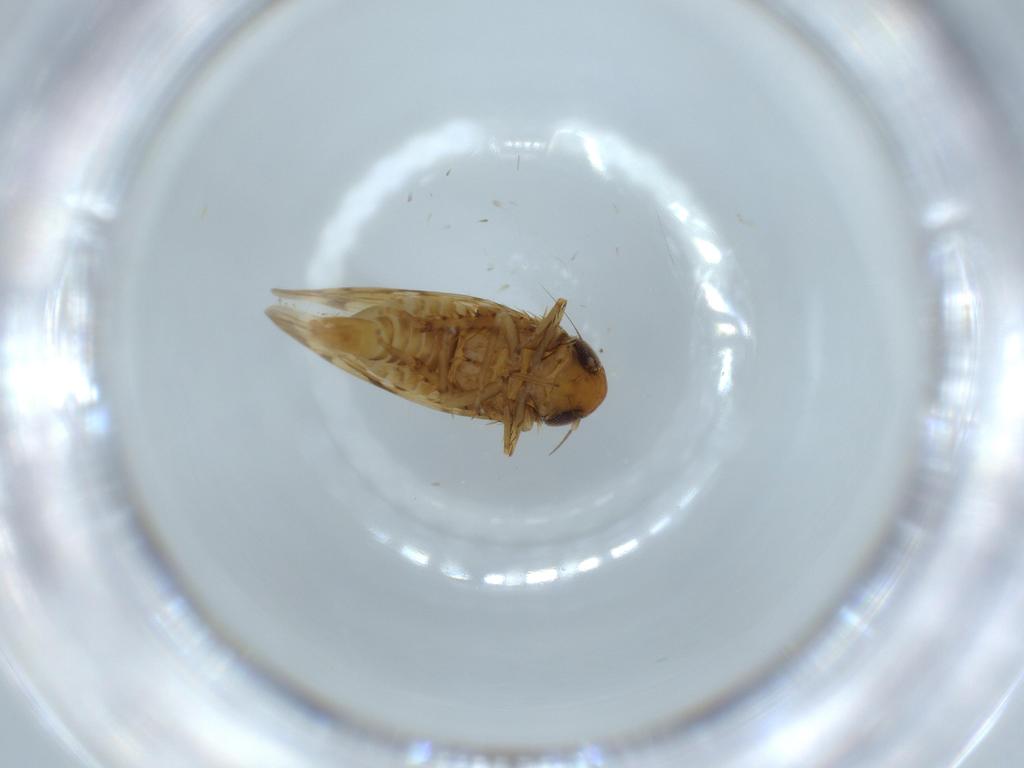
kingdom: Animalia
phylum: Arthropoda
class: Insecta
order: Hemiptera
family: Cicadellidae
